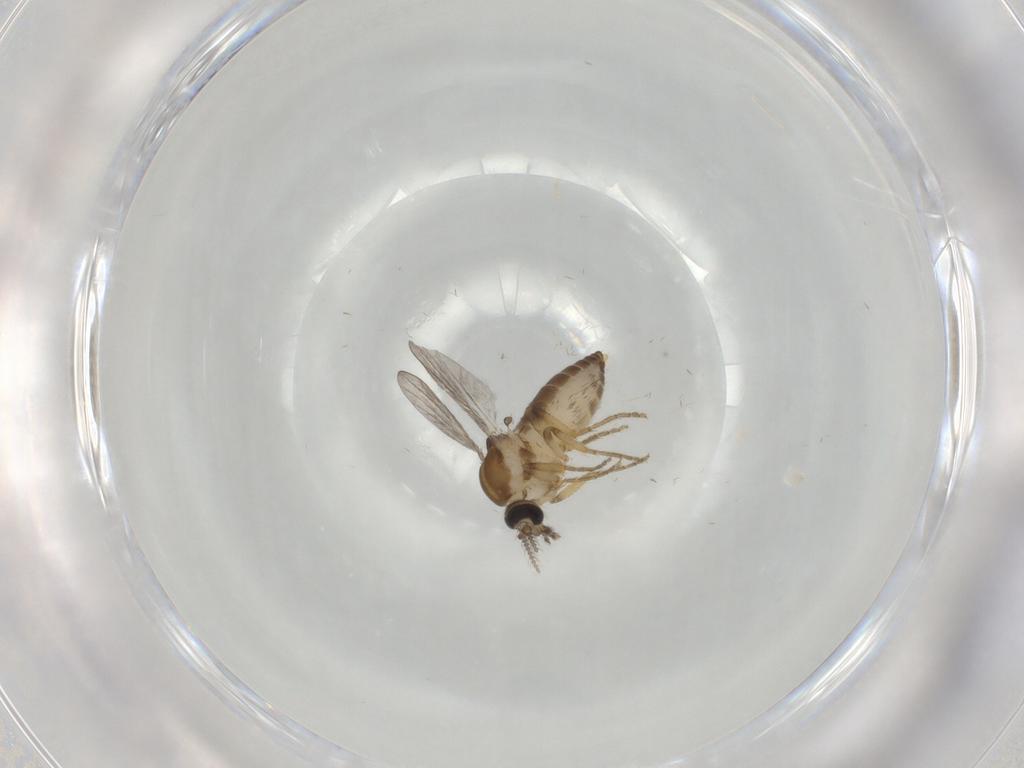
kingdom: Animalia
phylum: Arthropoda
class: Insecta
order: Diptera
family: Ceratopogonidae
